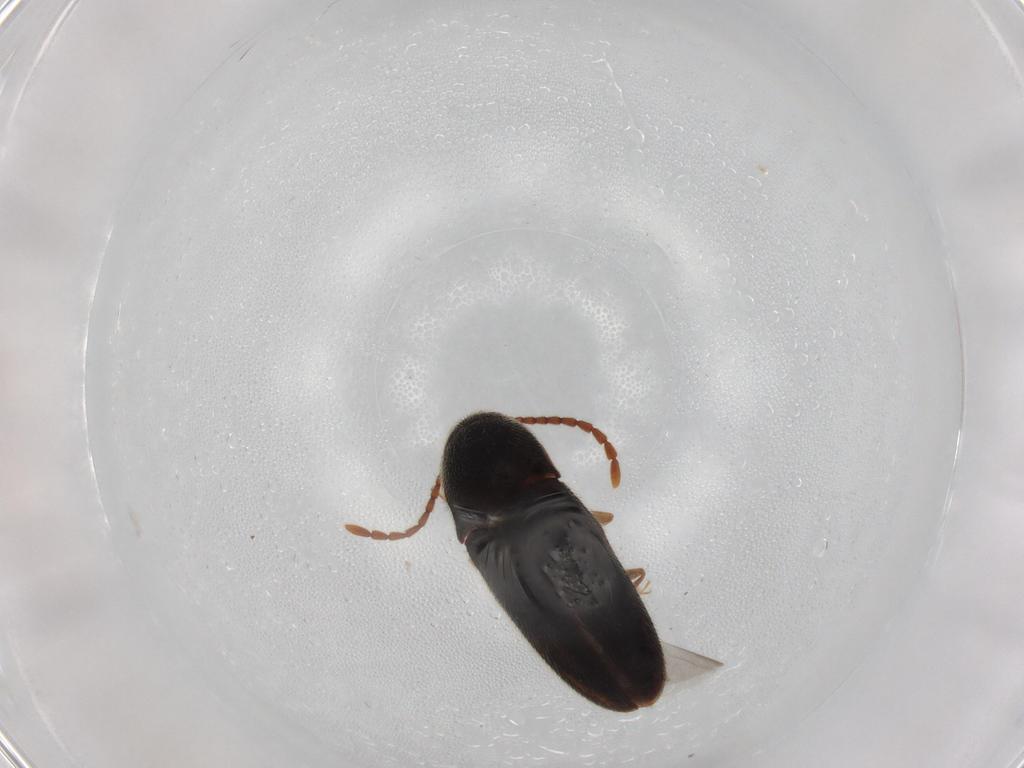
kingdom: Animalia
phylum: Arthropoda
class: Insecta
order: Coleoptera
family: Elateridae
